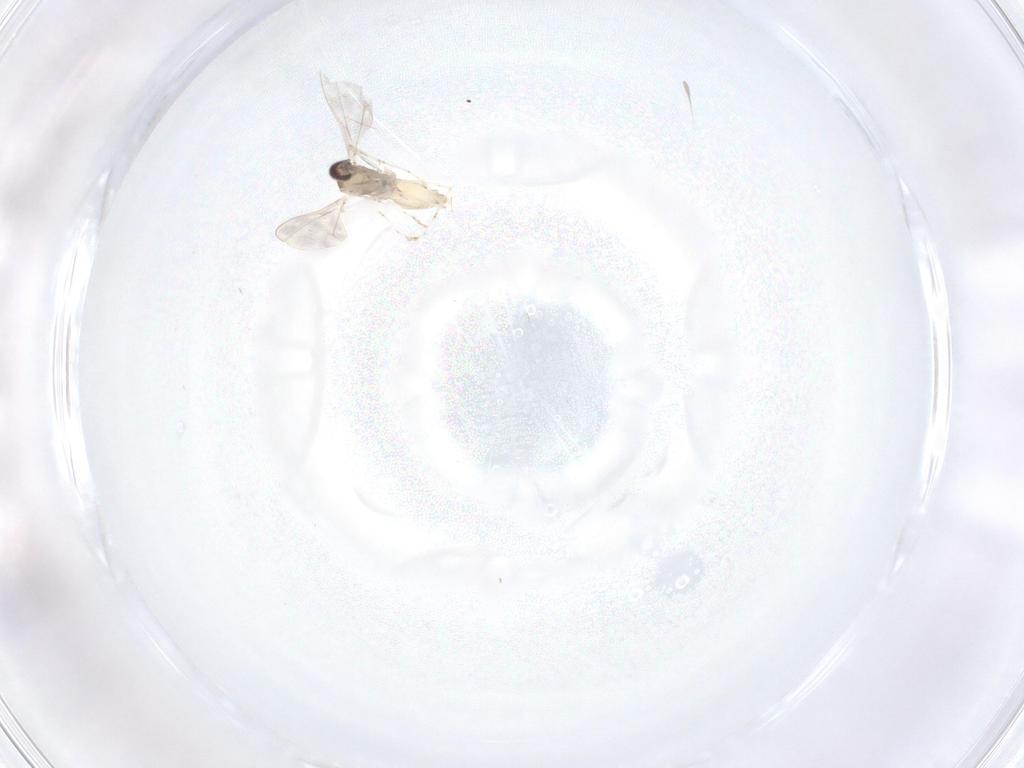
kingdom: Animalia
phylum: Arthropoda
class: Insecta
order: Diptera
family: Cecidomyiidae
